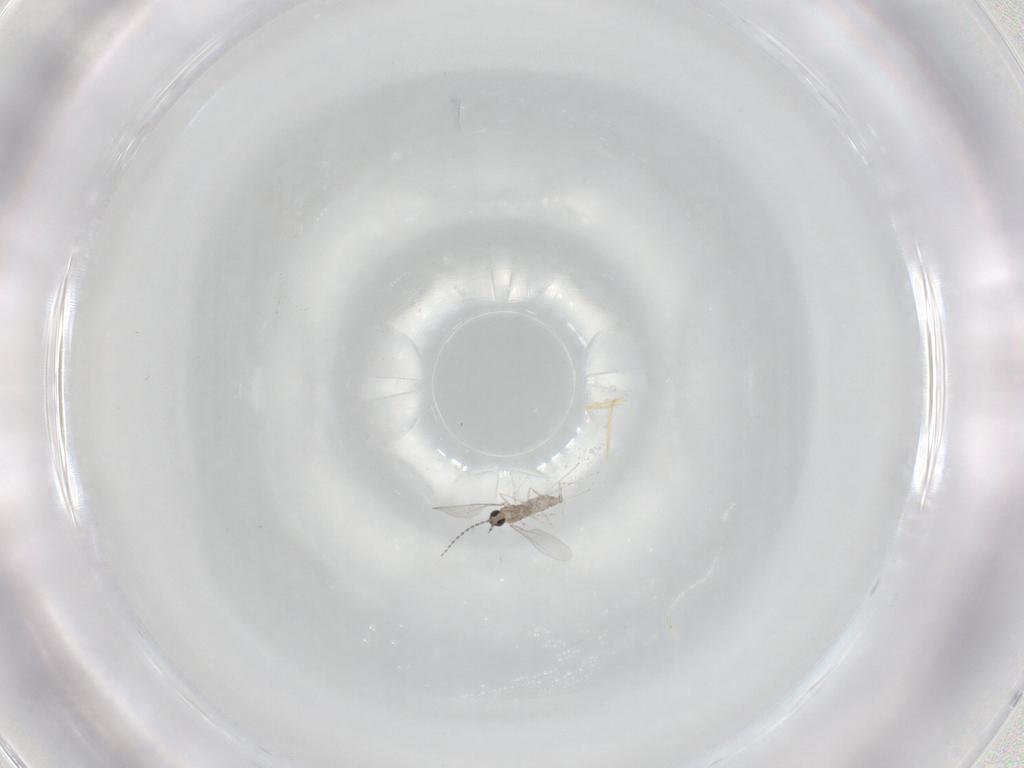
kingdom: Animalia
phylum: Arthropoda
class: Insecta
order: Diptera
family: Cecidomyiidae
